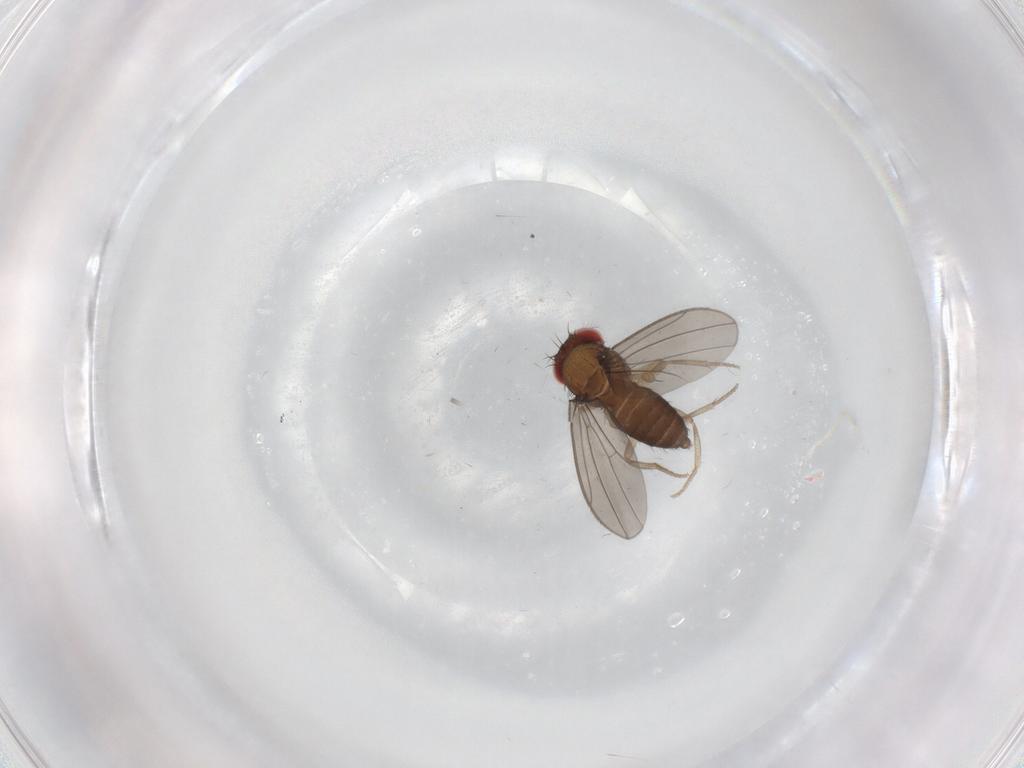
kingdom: Animalia
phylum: Arthropoda
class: Insecta
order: Diptera
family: Drosophilidae
